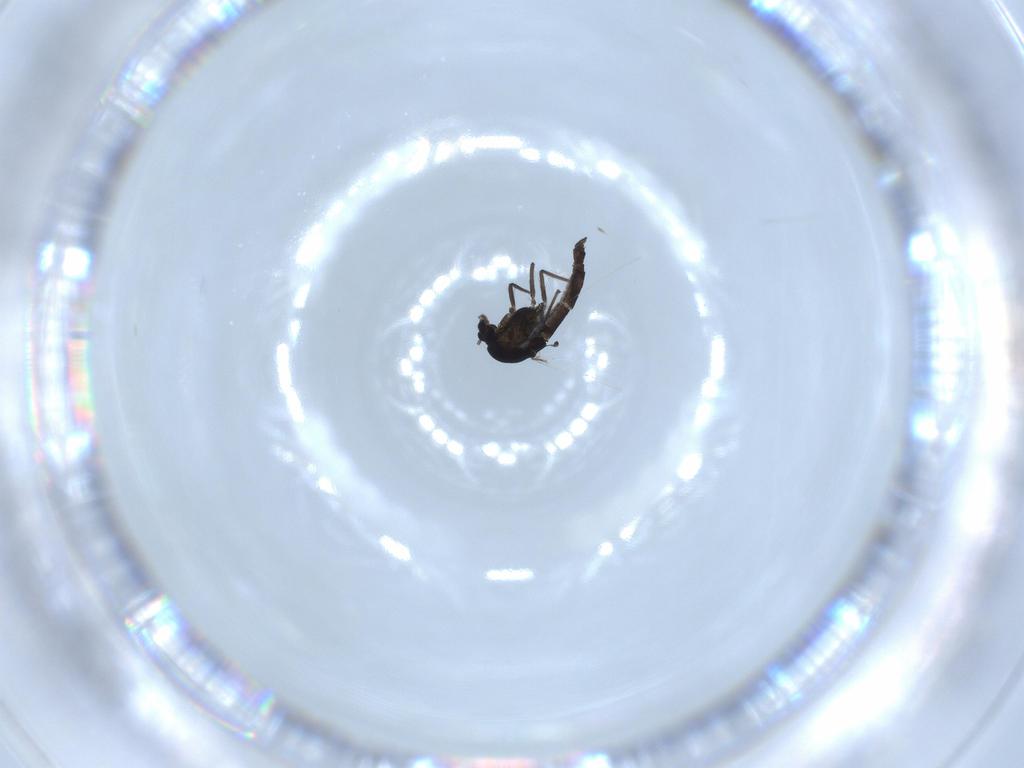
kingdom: Animalia
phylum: Arthropoda
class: Insecta
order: Diptera
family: Chironomidae
